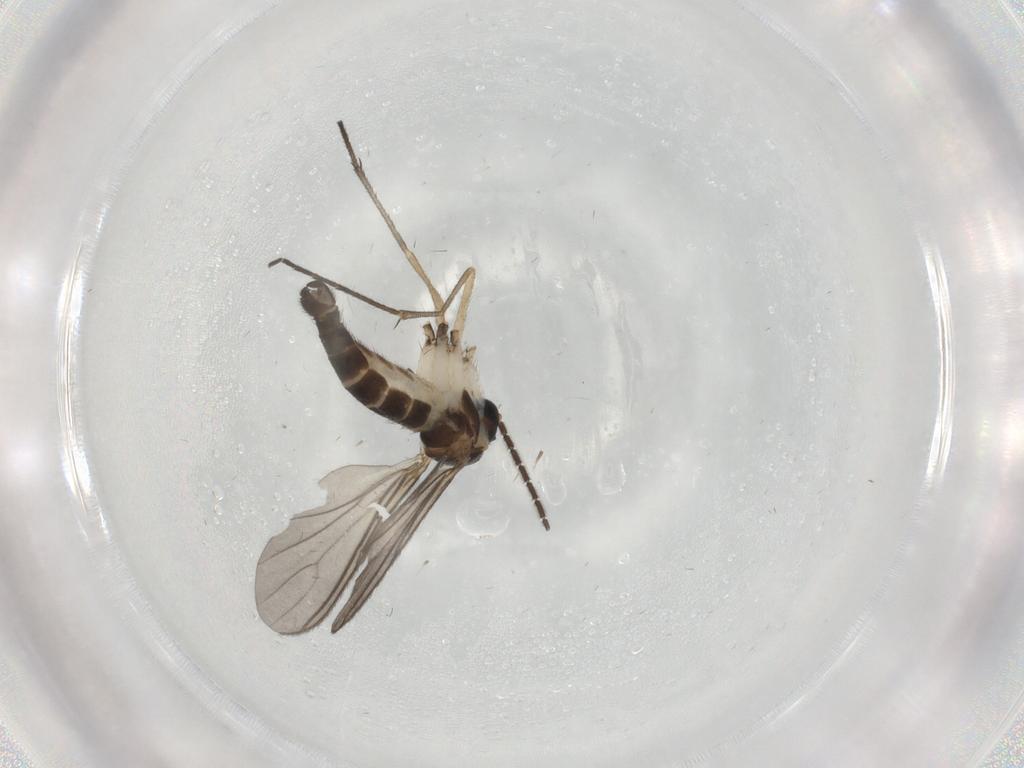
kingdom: Animalia
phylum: Arthropoda
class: Insecta
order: Diptera
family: Sciaridae
